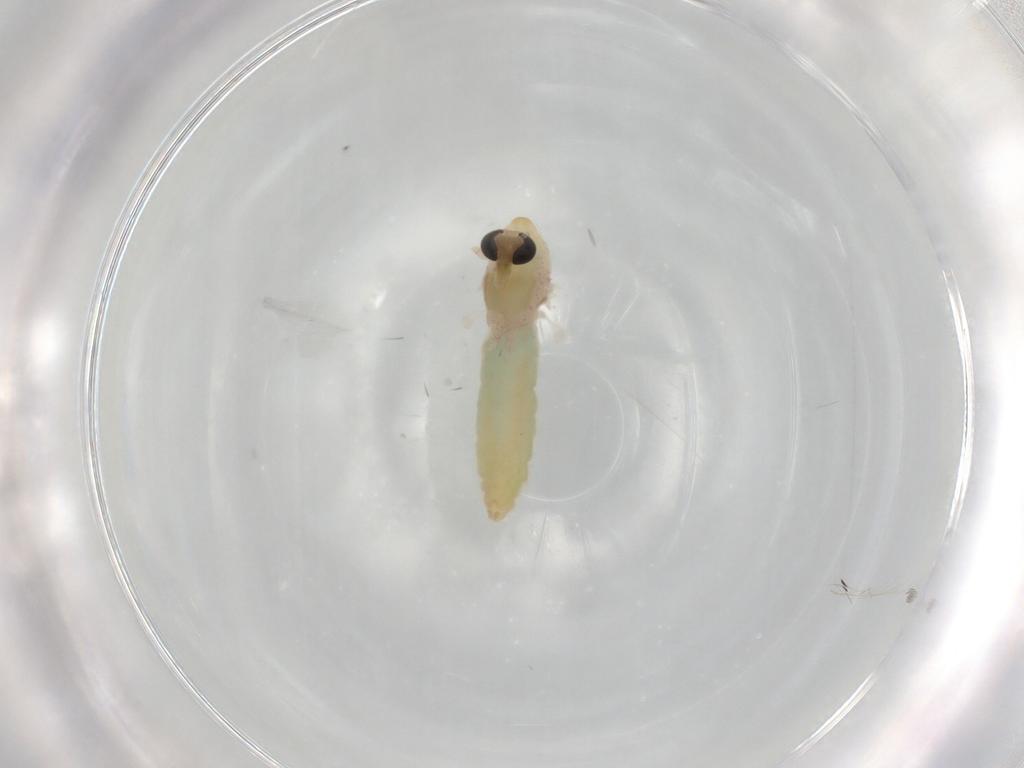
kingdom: Animalia
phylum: Arthropoda
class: Insecta
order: Diptera
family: Chironomidae
